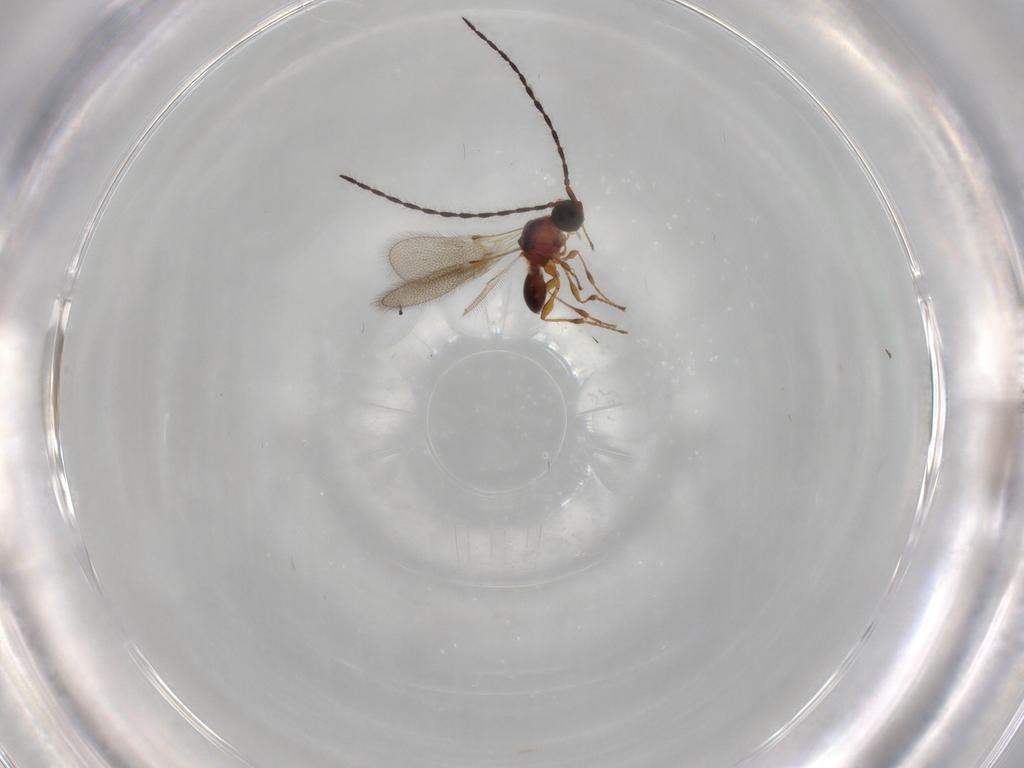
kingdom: Animalia
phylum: Arthropoda
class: Insecta
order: Hymenoptera
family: Diapriidae
